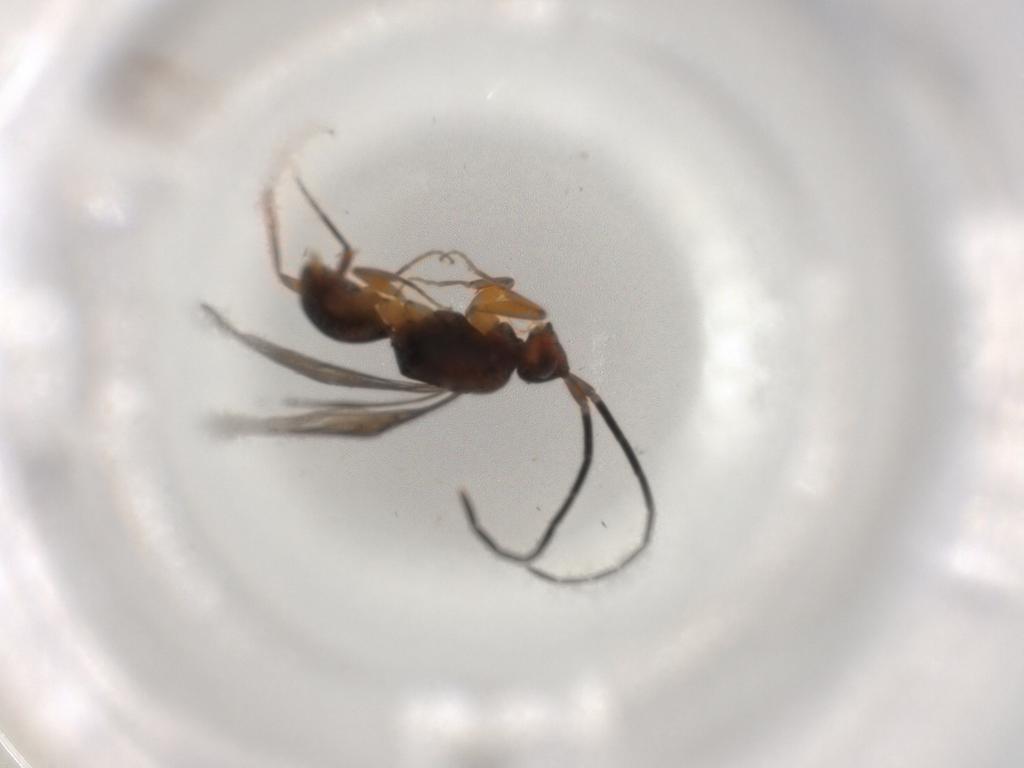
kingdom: Animalia
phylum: Arthropoda
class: Insecta
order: Hymenoptera
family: Embolemidae
